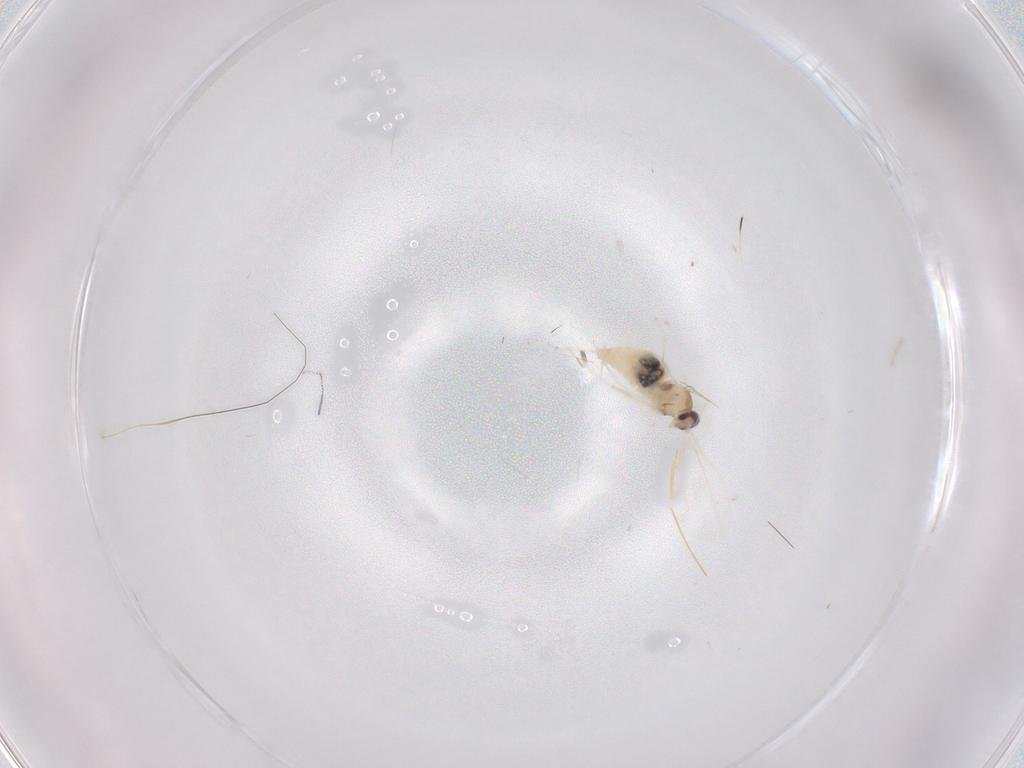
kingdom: Animalia
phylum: Arthropoda
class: Insecta
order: Diptera
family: Cecidomyiidae
